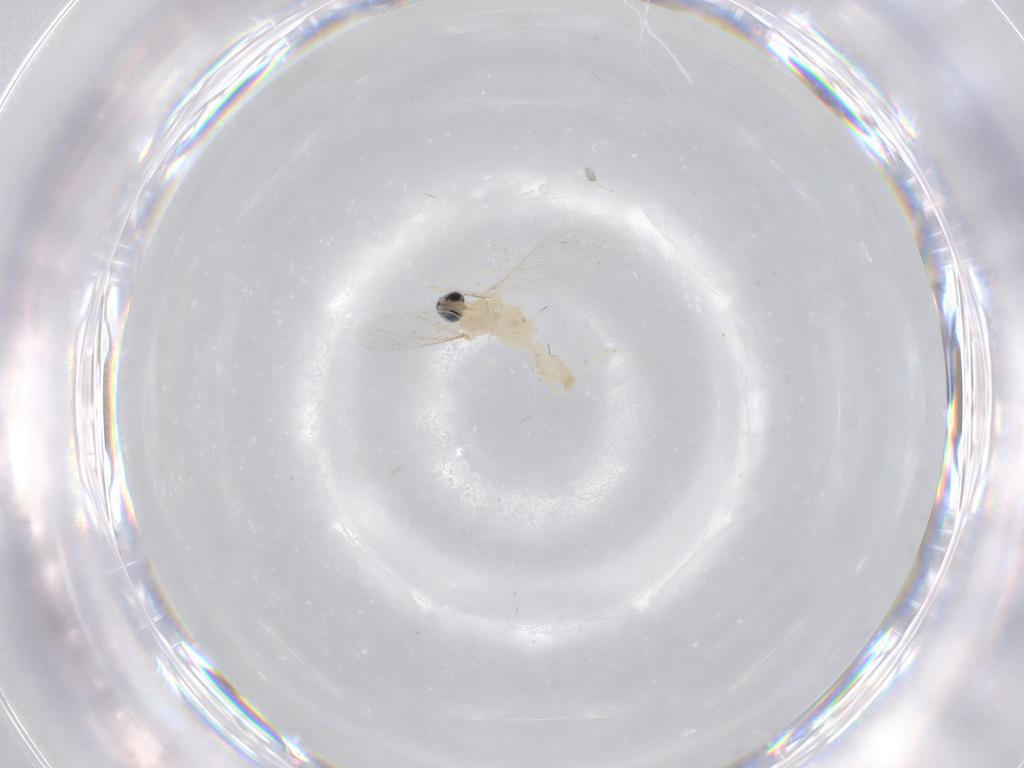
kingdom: Animalia
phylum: Arthropoda
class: Insecta
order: Diptera
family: Cecidomyiidae
